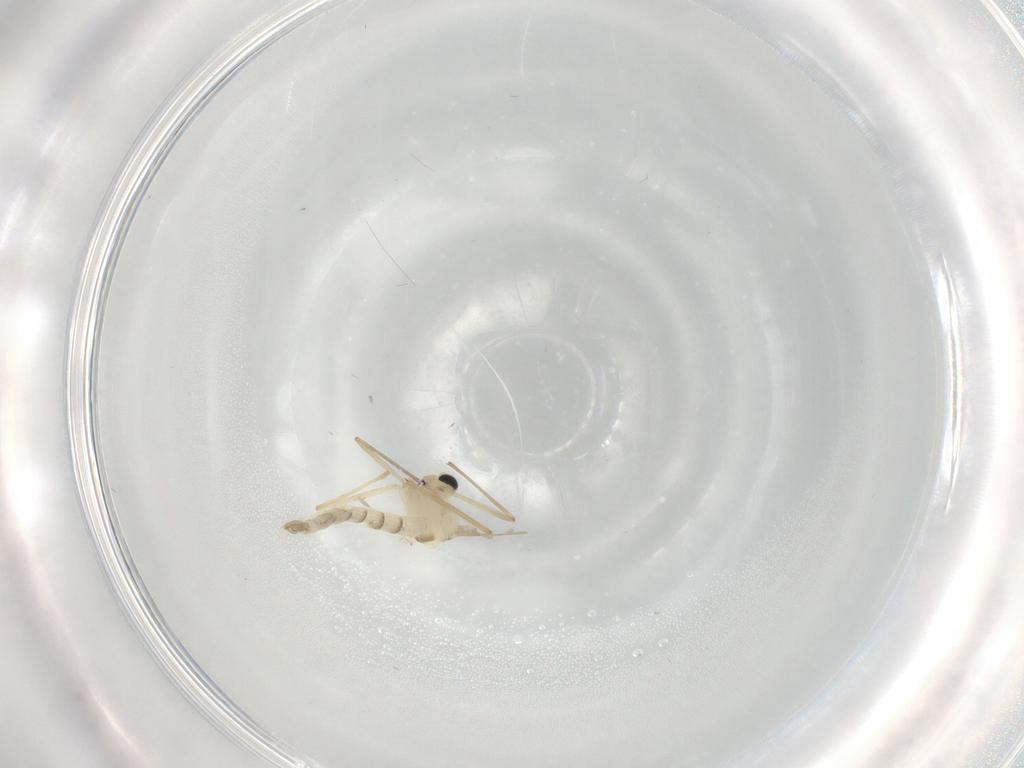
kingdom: Animalia
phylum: Arthropoda
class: Insecta
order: Diptera
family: Chironomidae
